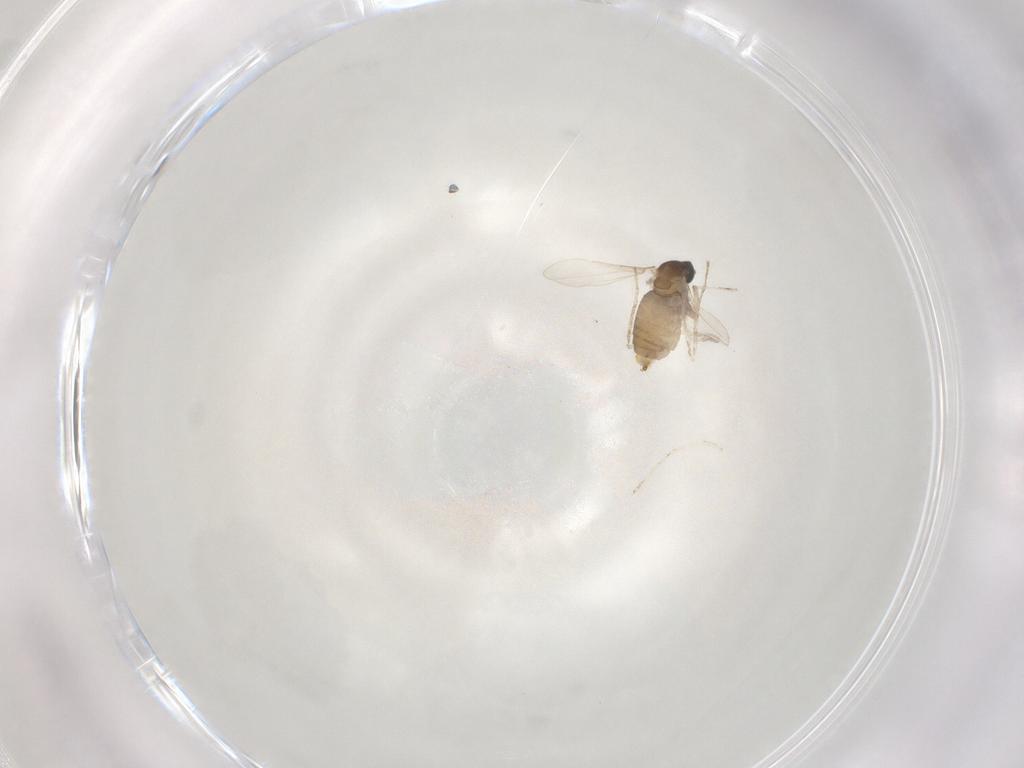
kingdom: Animalia
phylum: Arthropoda
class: Insecta
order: Diptera
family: Cecidomyiidae
